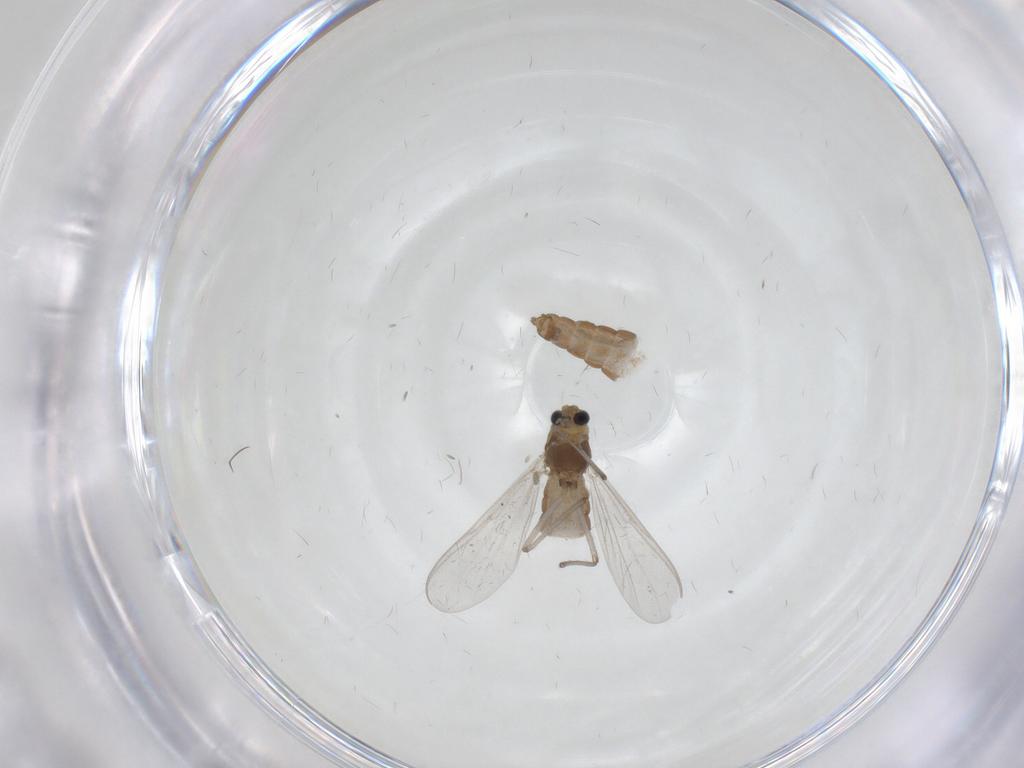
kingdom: Animalia
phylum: Arthropoda
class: Insecta
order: Diptera
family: Chironomidae
